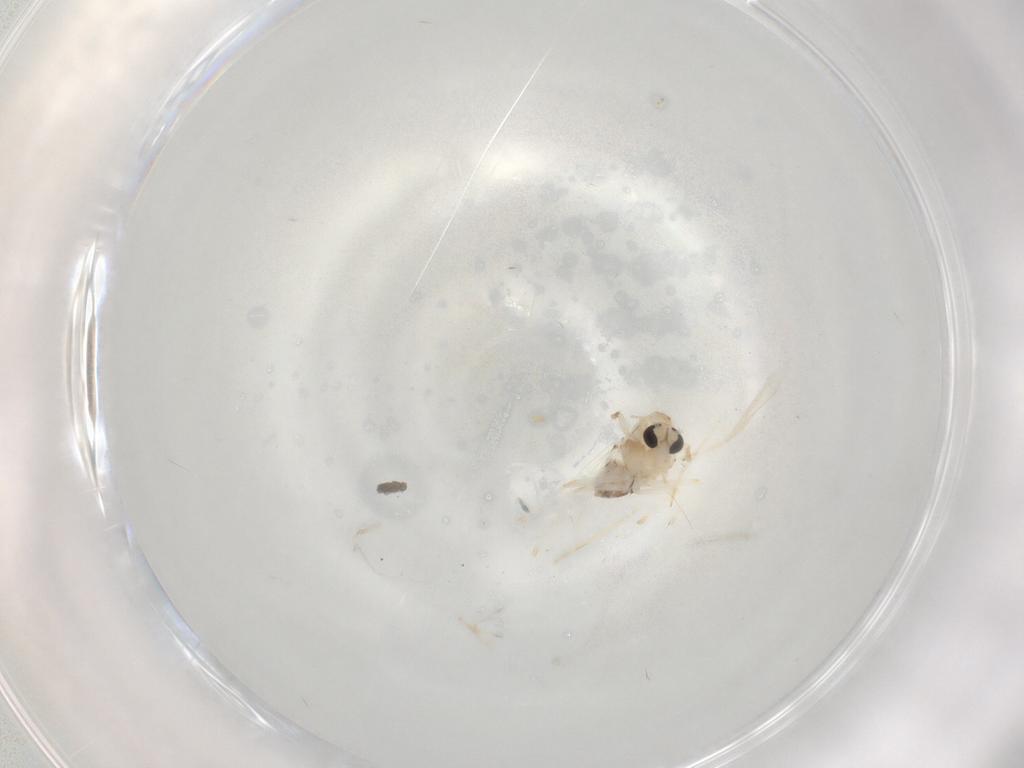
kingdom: Animalia
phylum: Arthropoda
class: Insecta
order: Diptera
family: Chironomidae
